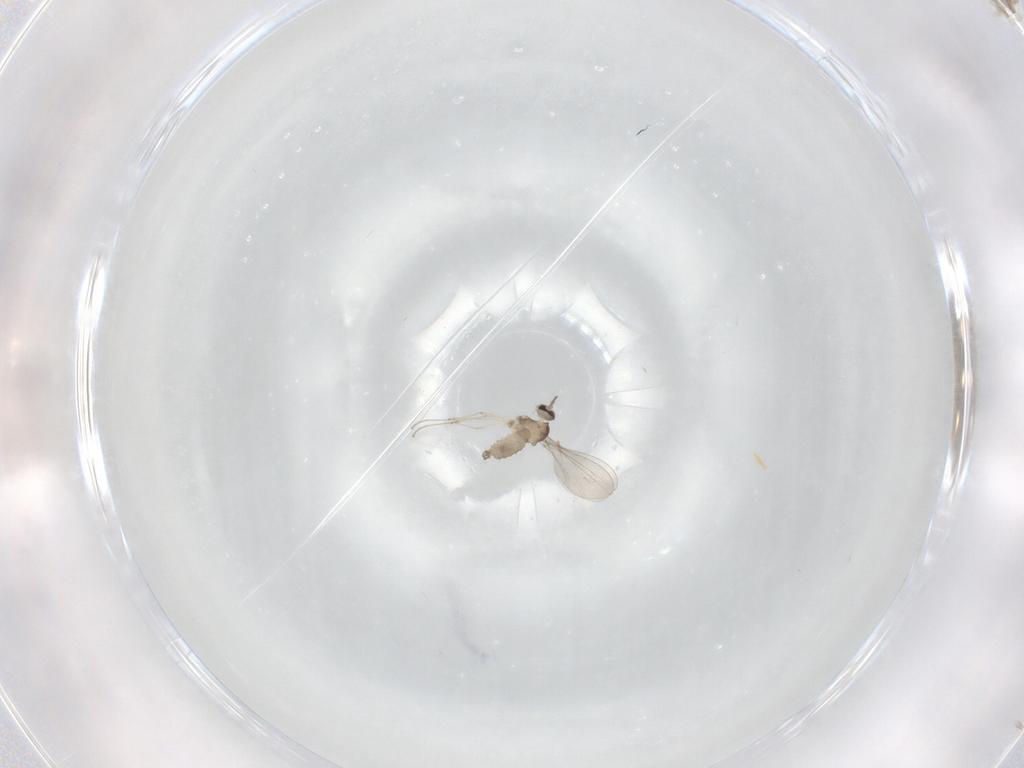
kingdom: Animalia
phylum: Arthropoda
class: Insecta
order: Diptera
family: Cecidomyiidae
